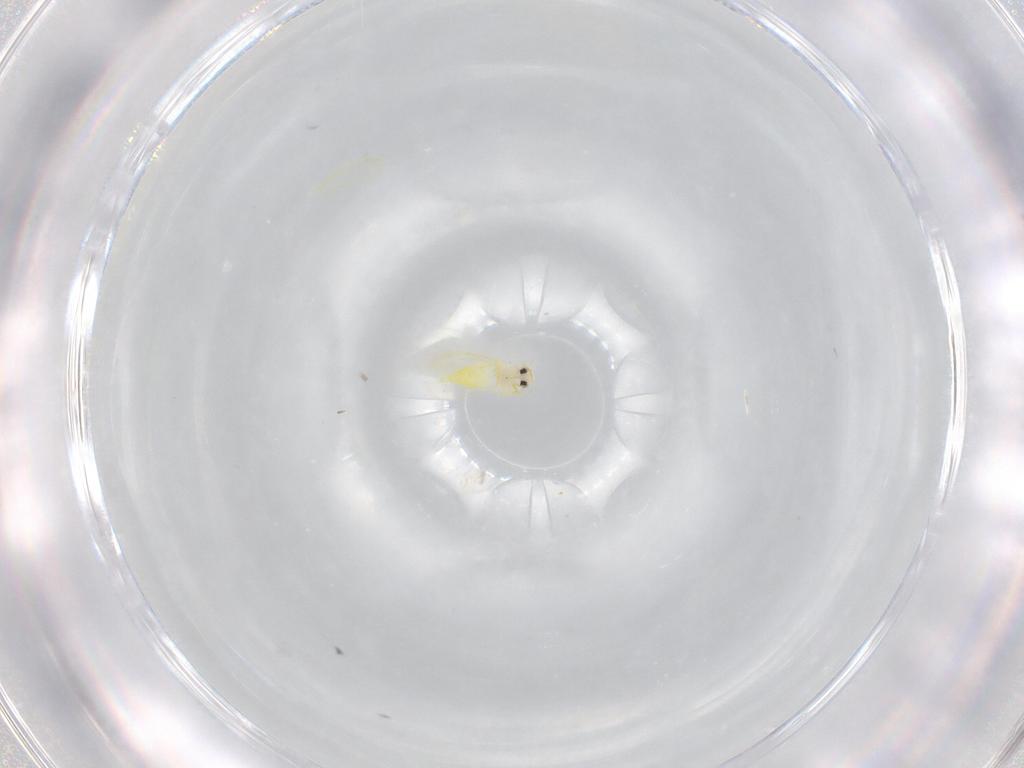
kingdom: Animalia
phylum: Arthropoda
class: Insecta
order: Hemiptera
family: Aleyrodidae
